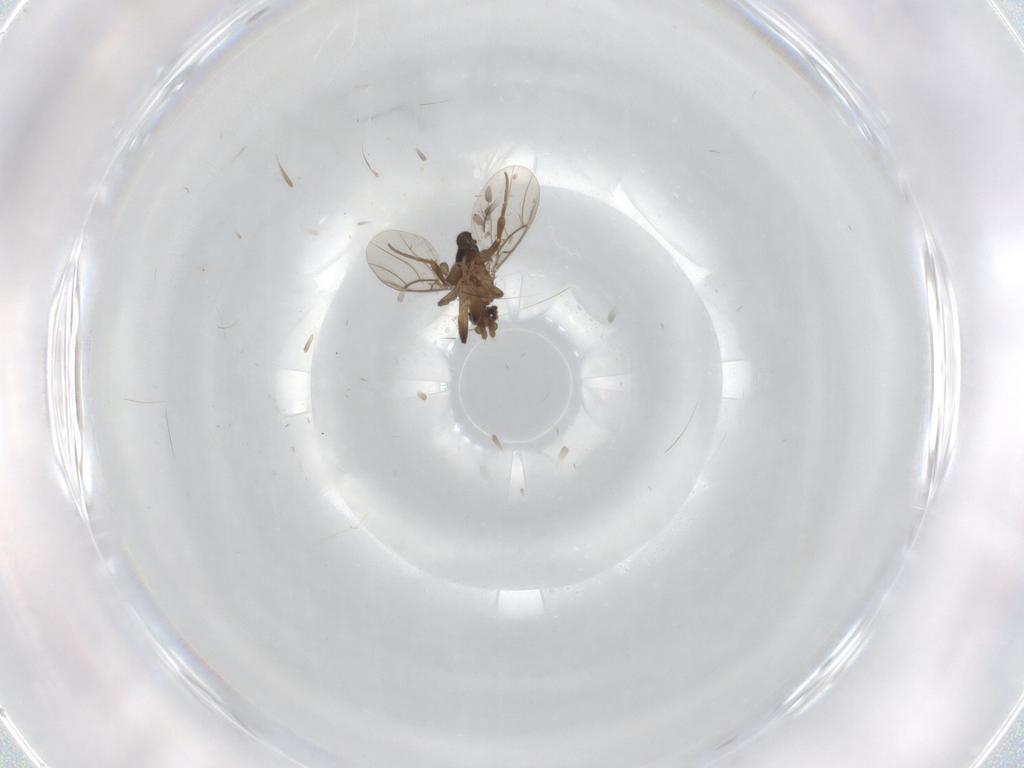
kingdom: Animalia
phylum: Arthropoda
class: Insecta
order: Diptera
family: Phoridae
